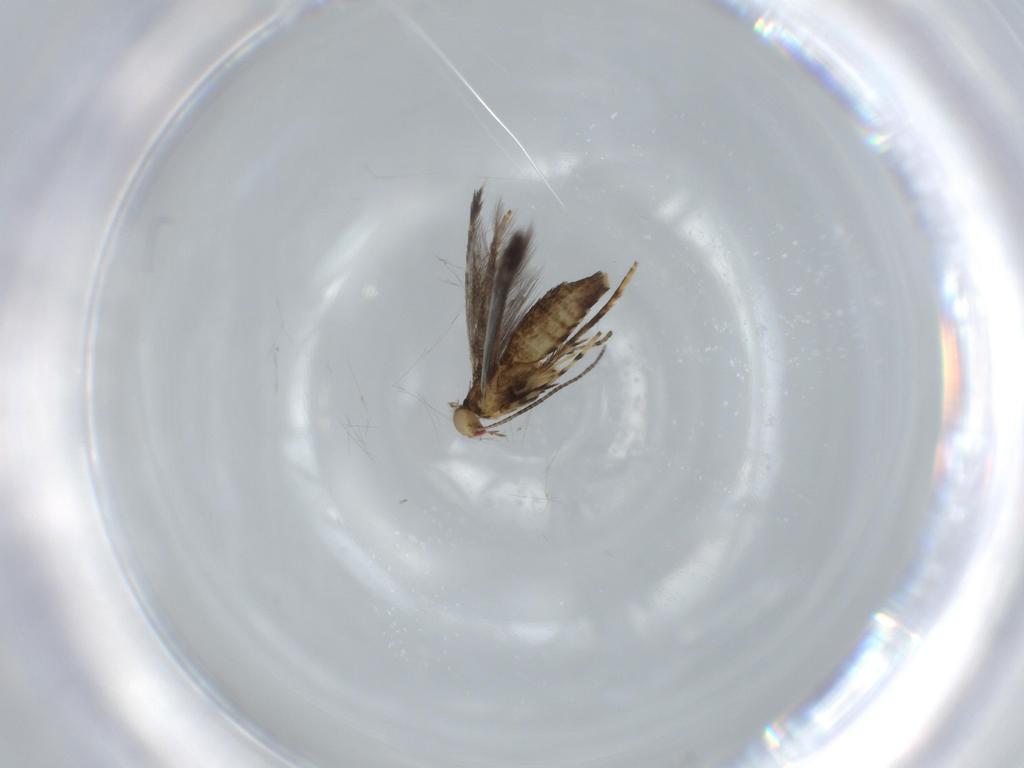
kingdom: Animalia
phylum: Arthropoda
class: Insecta
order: Lepidoptera
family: Gracillariidae
